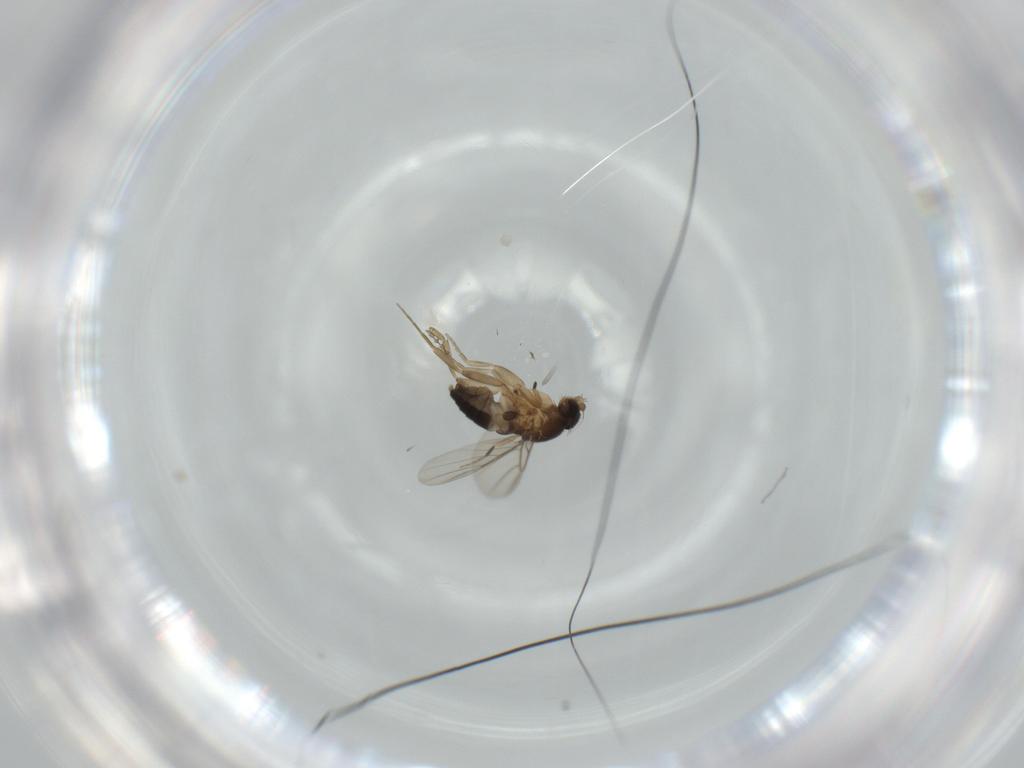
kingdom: Animalia
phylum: Arthropoda
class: Insecta
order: Diptera
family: Phoridae
